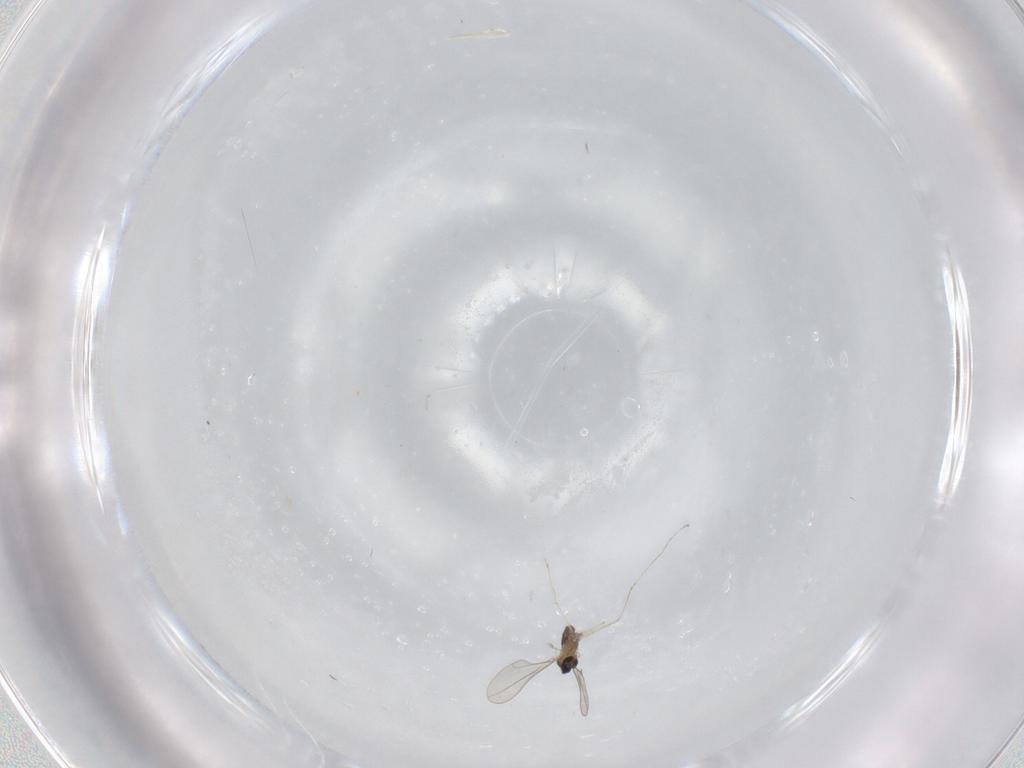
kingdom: Animalia
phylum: Arthropoda
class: Insecta
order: Diptera
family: Cecidomyiidae
